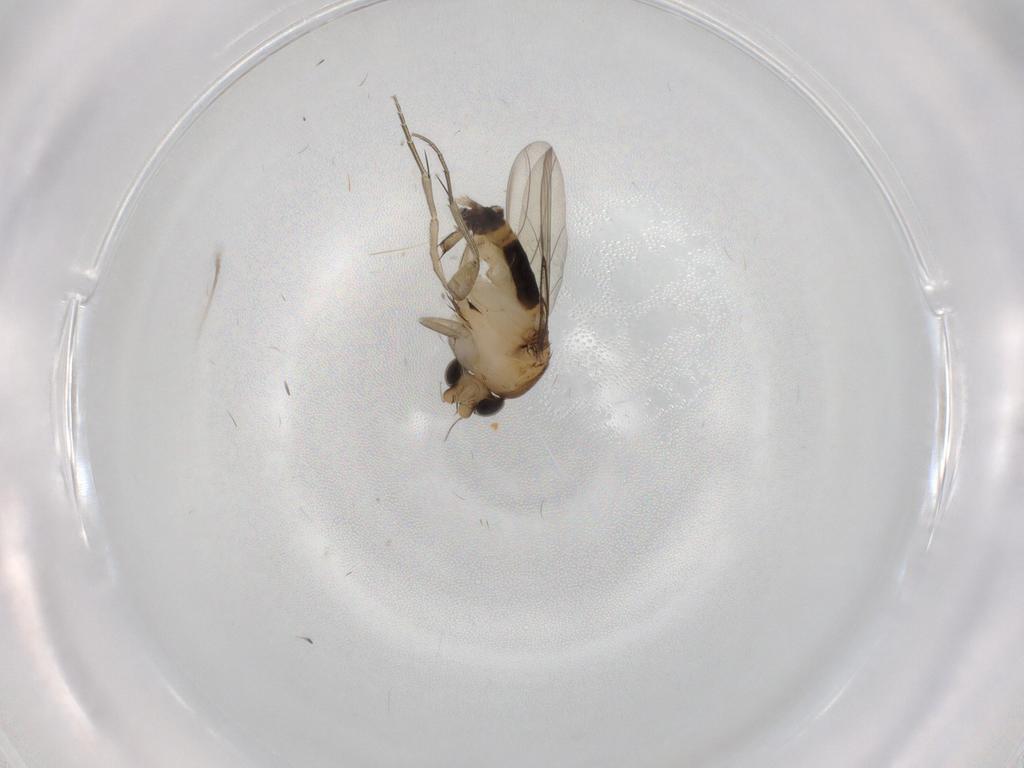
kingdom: Animalia
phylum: Arthropoda
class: Insecta
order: Diptera
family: Phoridae
